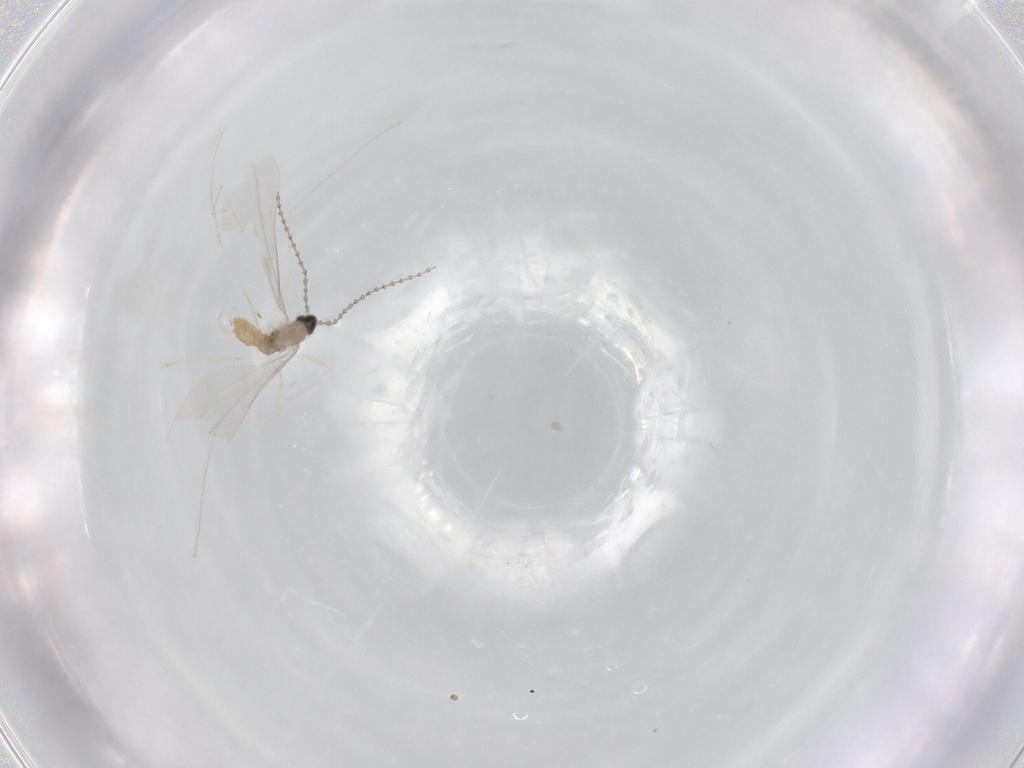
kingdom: Animalia
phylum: Arthropoda
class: Insecta
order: Diptera
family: Cecidomyiidae
